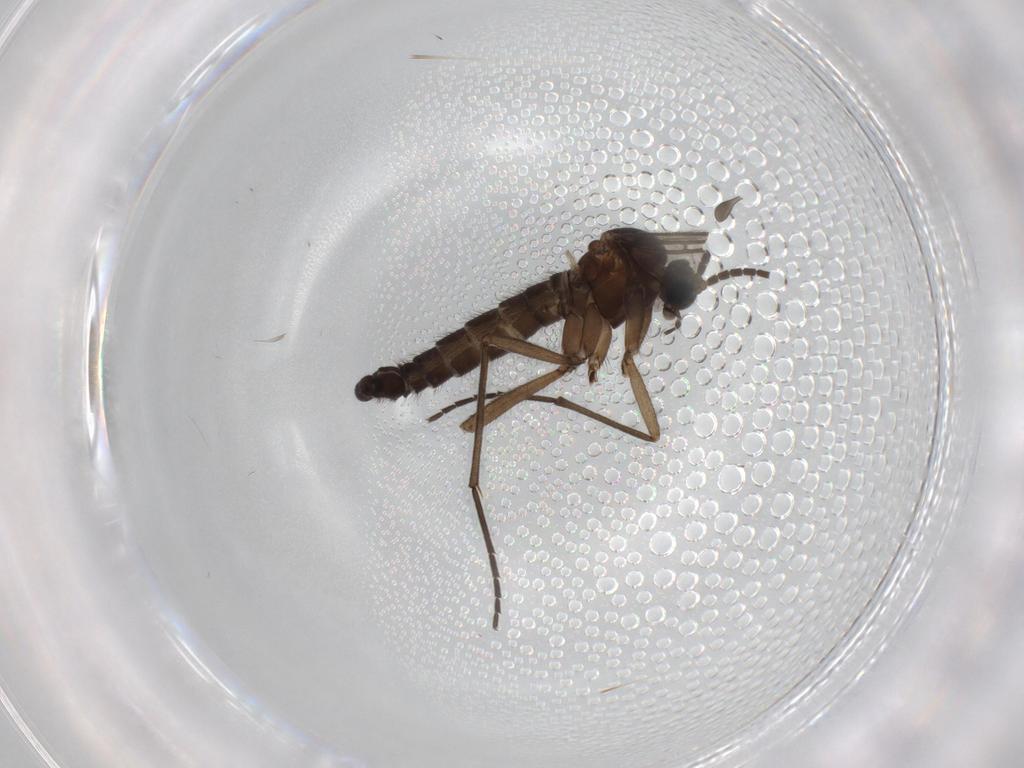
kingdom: Animalia
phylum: Arthropoda
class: Insecta
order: Diptera
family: Sciaridae
